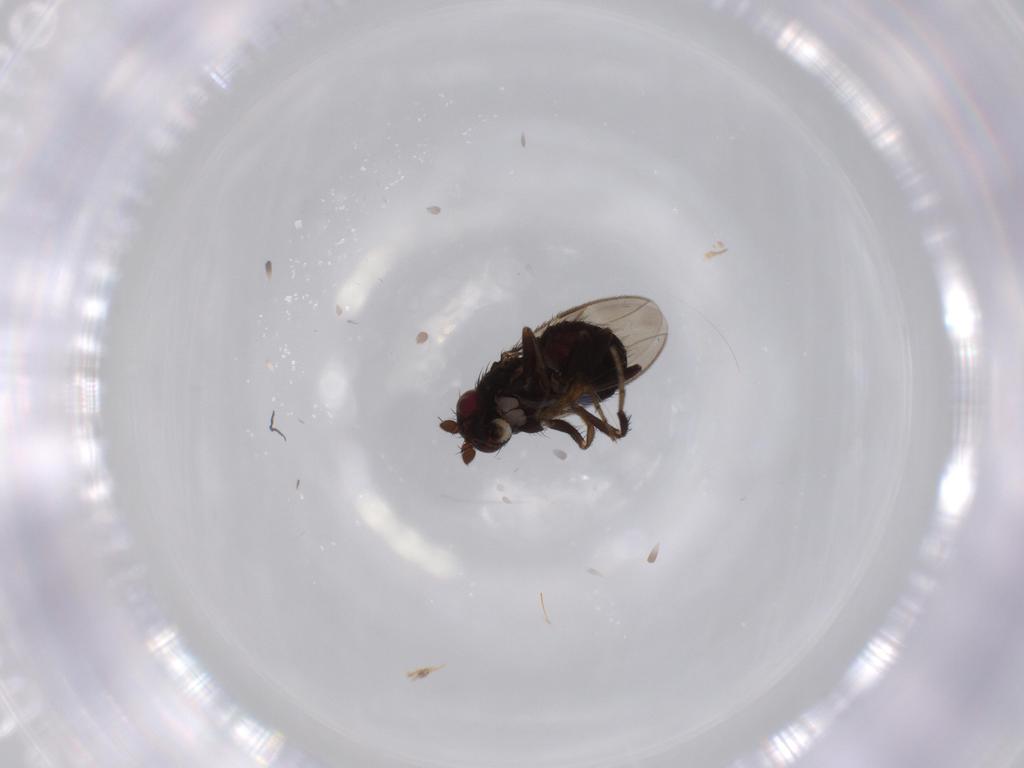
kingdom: Animalia
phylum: Arthropoda
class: Insecta
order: Diptera
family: Sphaeroceridae
